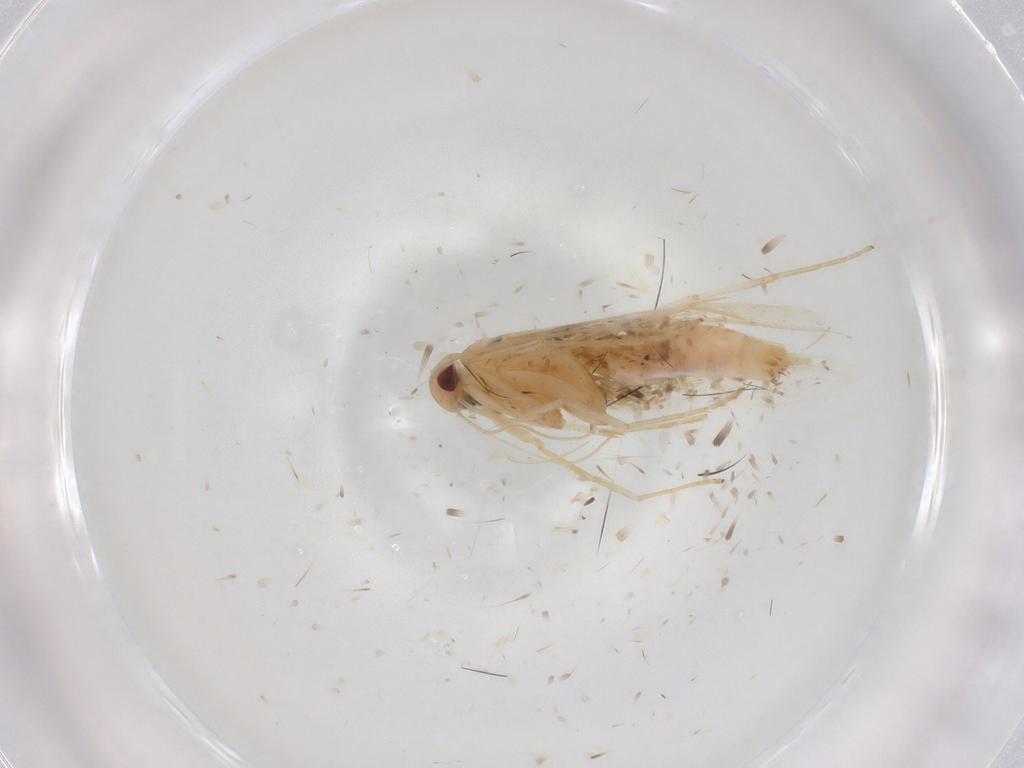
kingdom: Animalia
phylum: Arthropoda
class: Insecta
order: Lepidoptera
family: Cosmopterigidae
